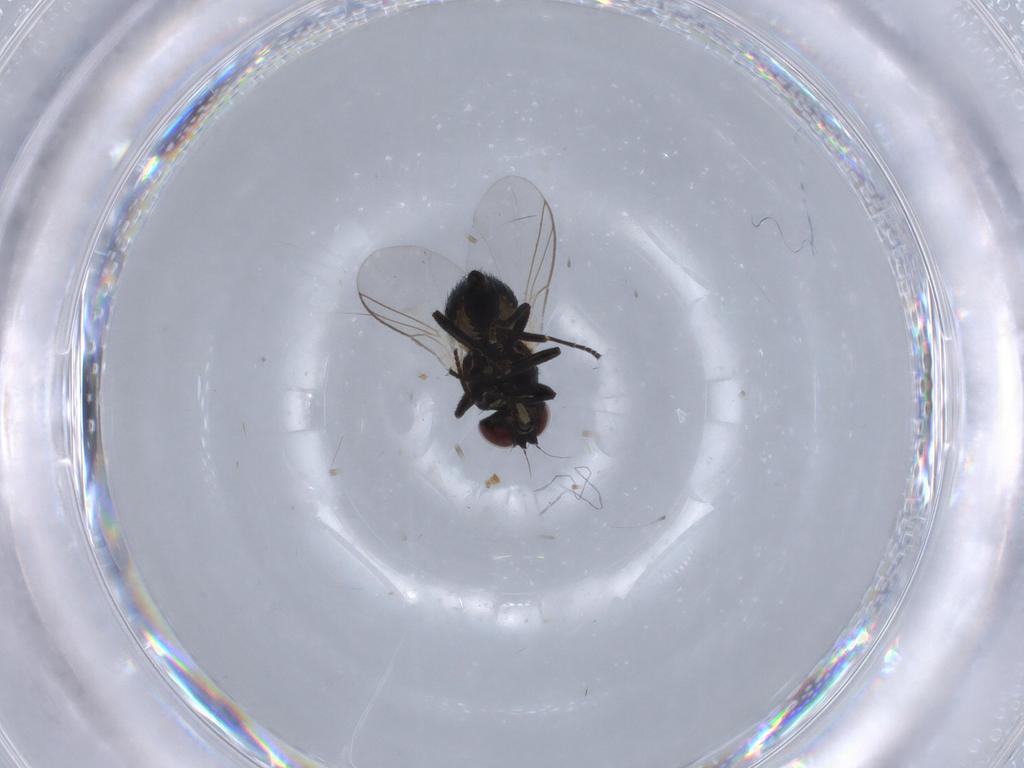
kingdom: Animalia
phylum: Arthropoda
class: Insecta
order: Diptera
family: Agromyzidae
